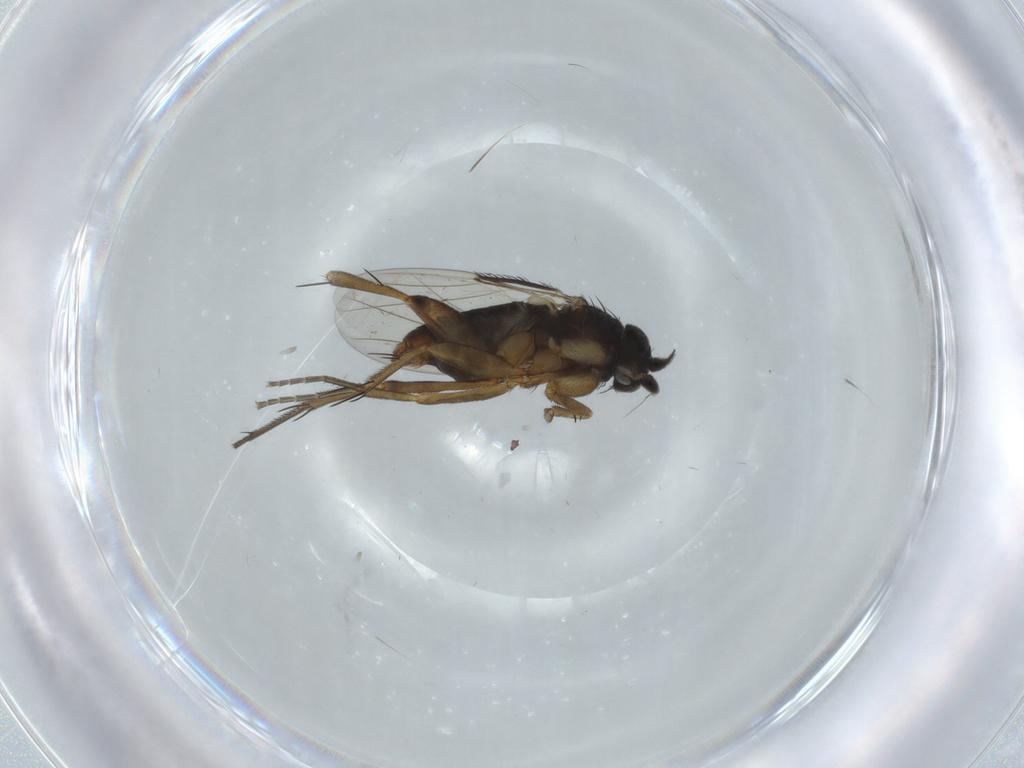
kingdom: Animalia
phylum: Arthropoda
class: Insecta
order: Diptera
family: Phoridae
